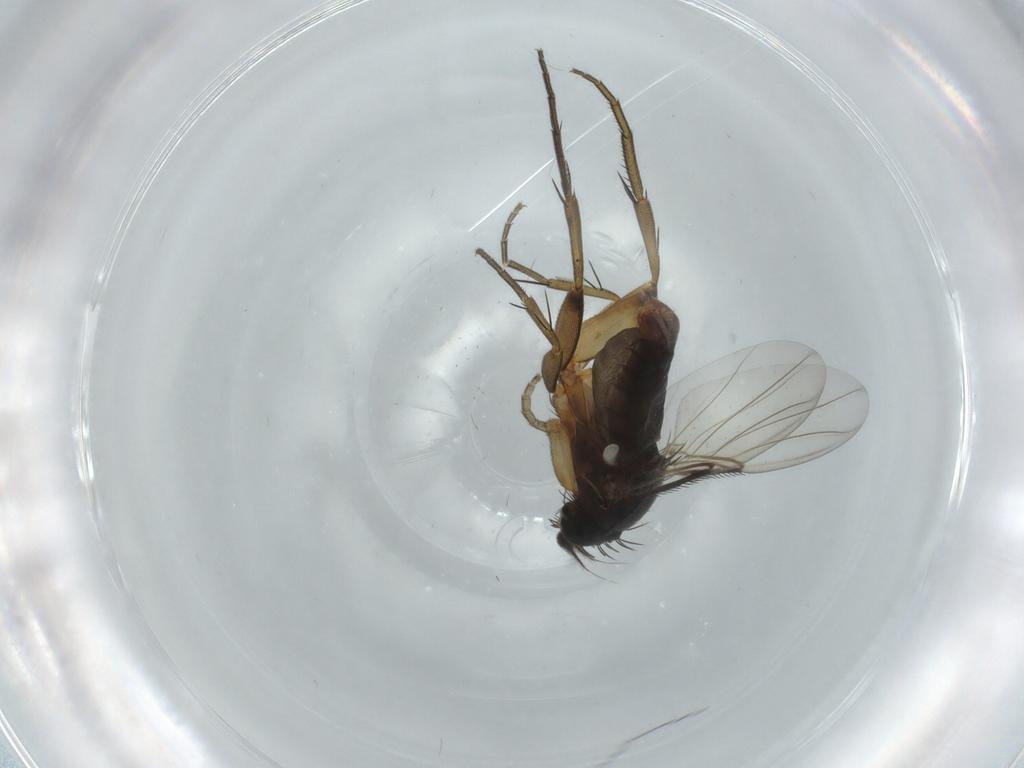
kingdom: Animalia
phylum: Arthropoda
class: Insecta
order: Diptera
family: Phoridae
